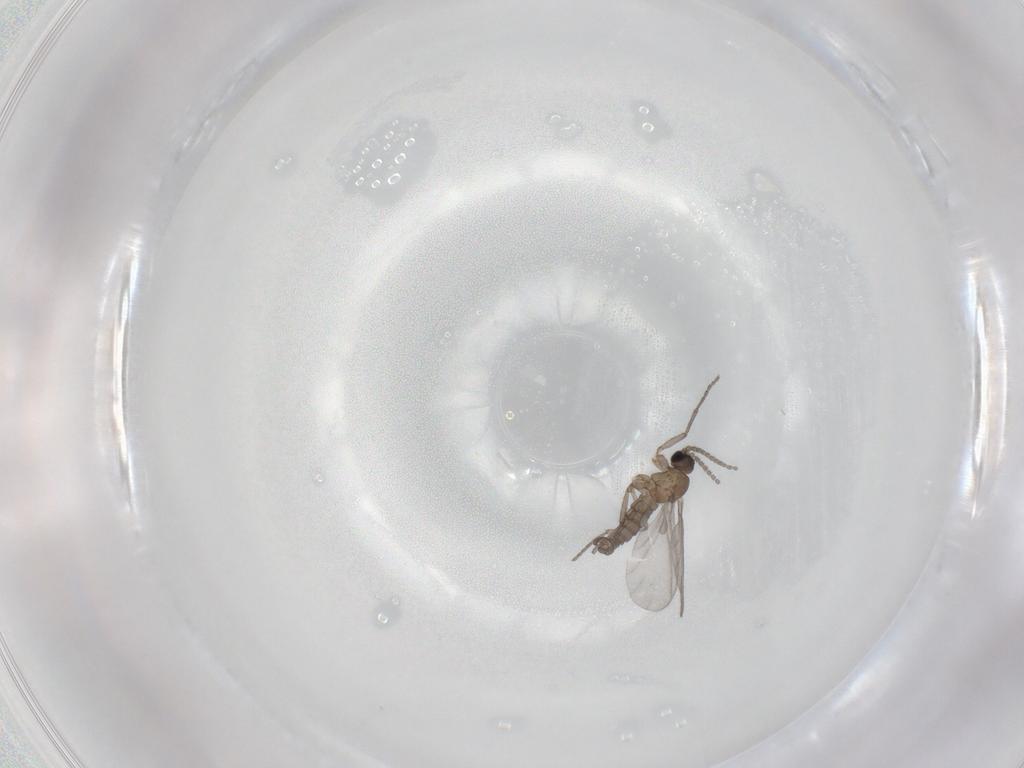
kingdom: Animalia
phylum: Arthropoda
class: Insecta
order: Diptera
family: Sciaridae
